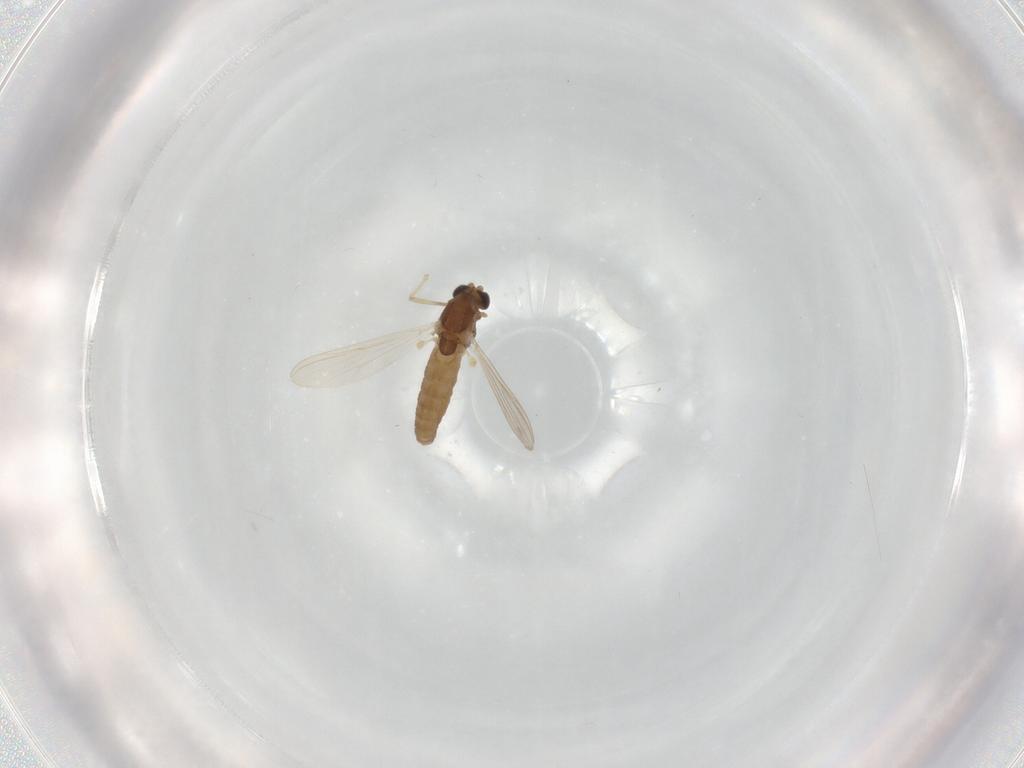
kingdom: Animalia
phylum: Arthropoda
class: Insecta
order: Diptera
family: Chironomidae
